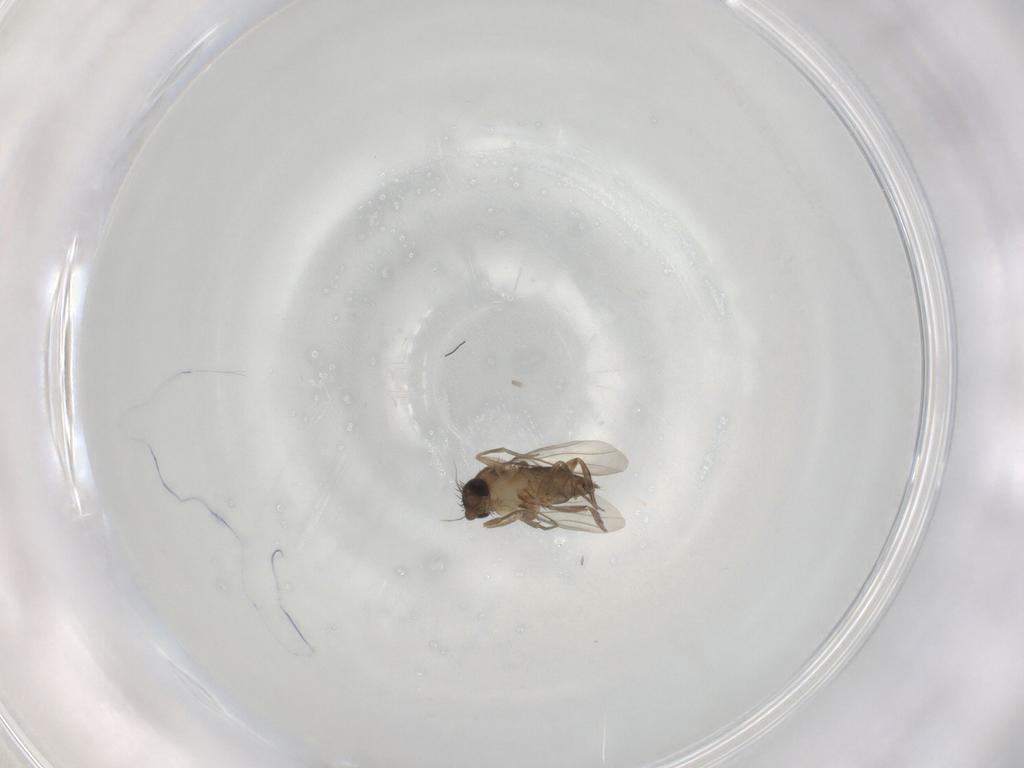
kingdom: Animalia
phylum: Arthropoda
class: Insecta
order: Diptera
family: Phoridae
